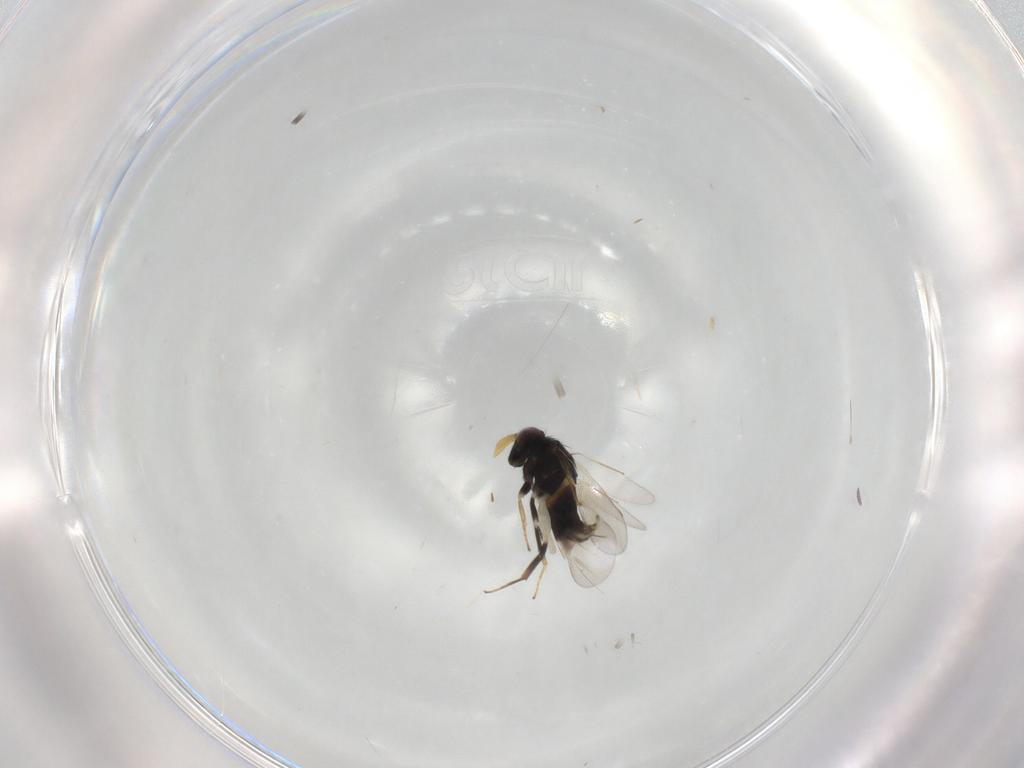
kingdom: Animalia
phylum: Arthropoda
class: Insecta
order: Hymenoptera
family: Aphelinidae
